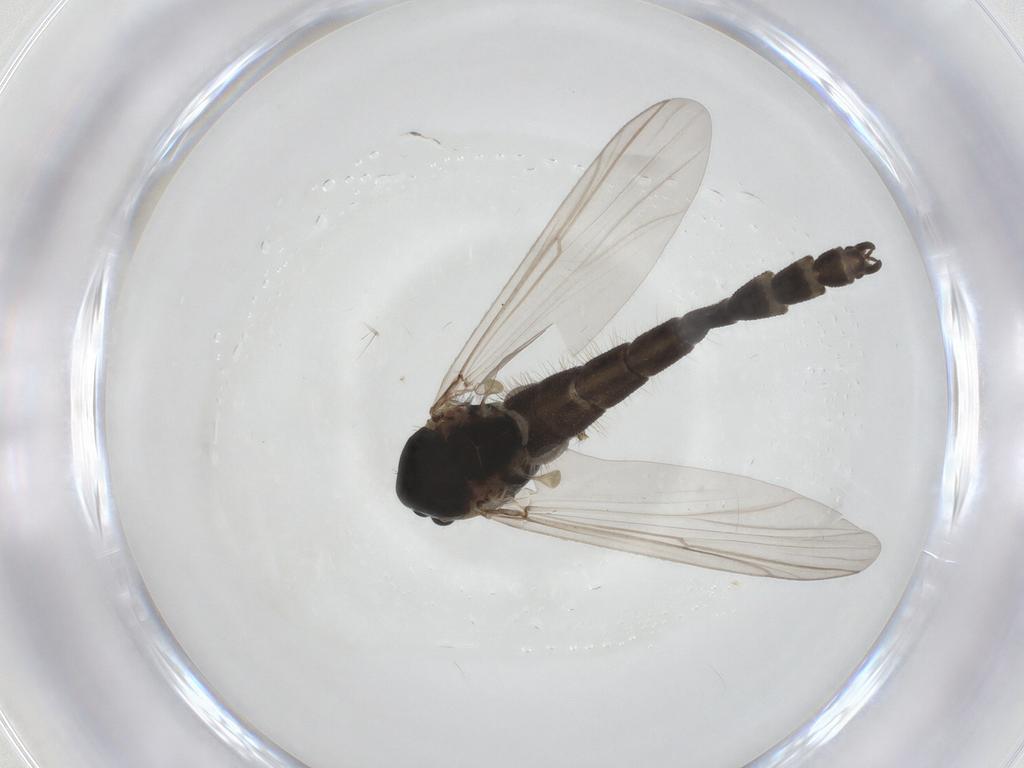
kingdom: Animalia
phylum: Arthropoda
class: Insecta
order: Diptera
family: Chironomidae
